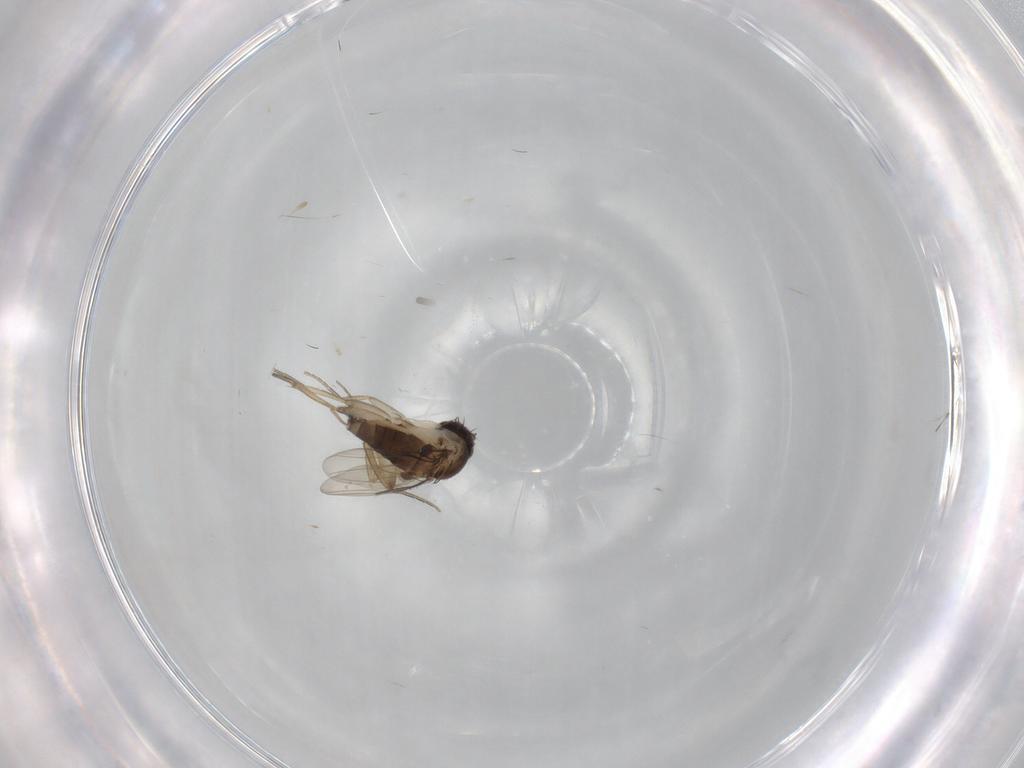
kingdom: Animalia
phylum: Arthropoda
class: Insecta
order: Diptera
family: Phoridae
